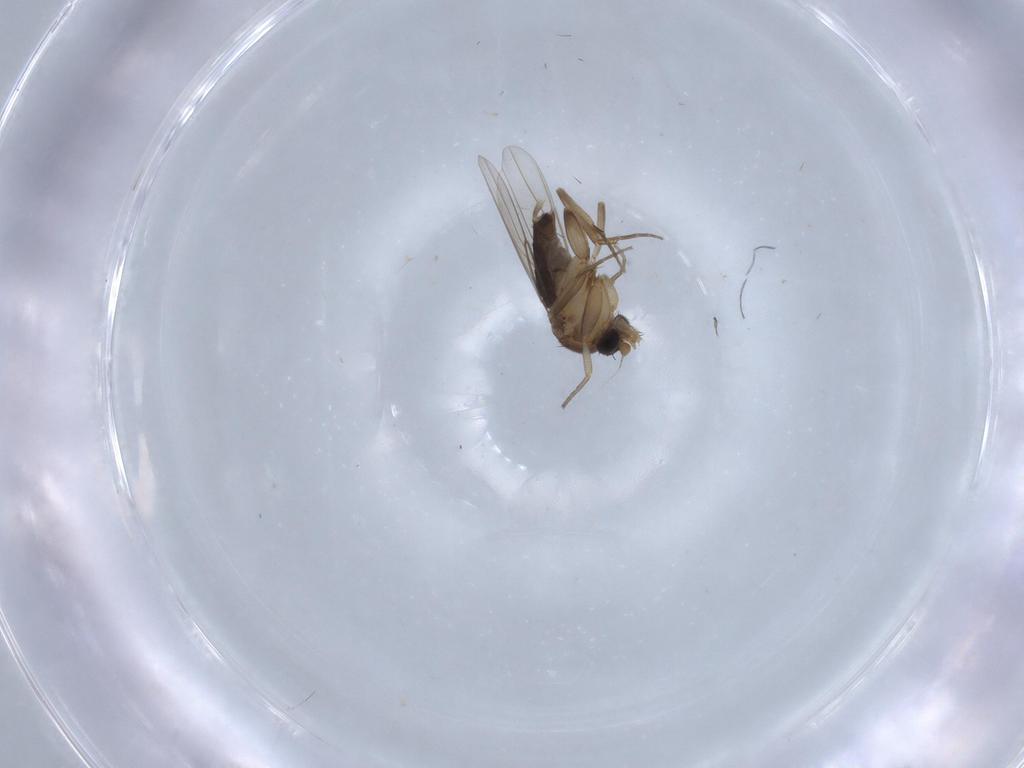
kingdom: Animalia
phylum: Arthropoda
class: Insecta
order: Diptera
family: Phoridae
